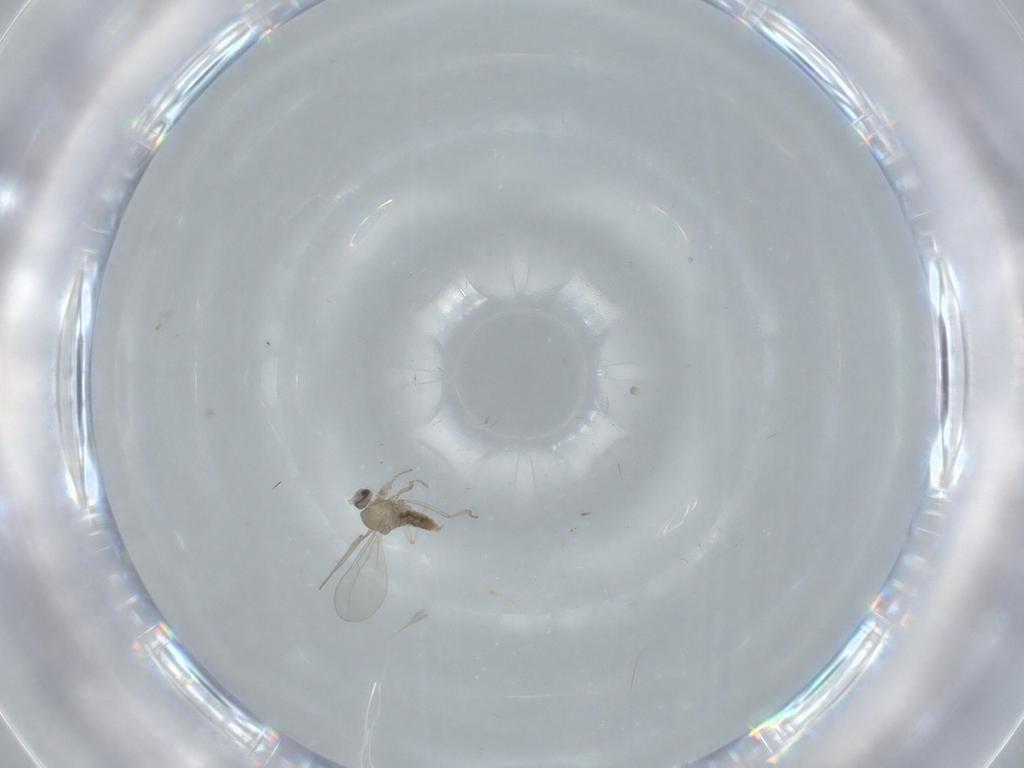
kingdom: Animalia
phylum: Arthropoda
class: Insecta
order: Diptera
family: Chironomidae
